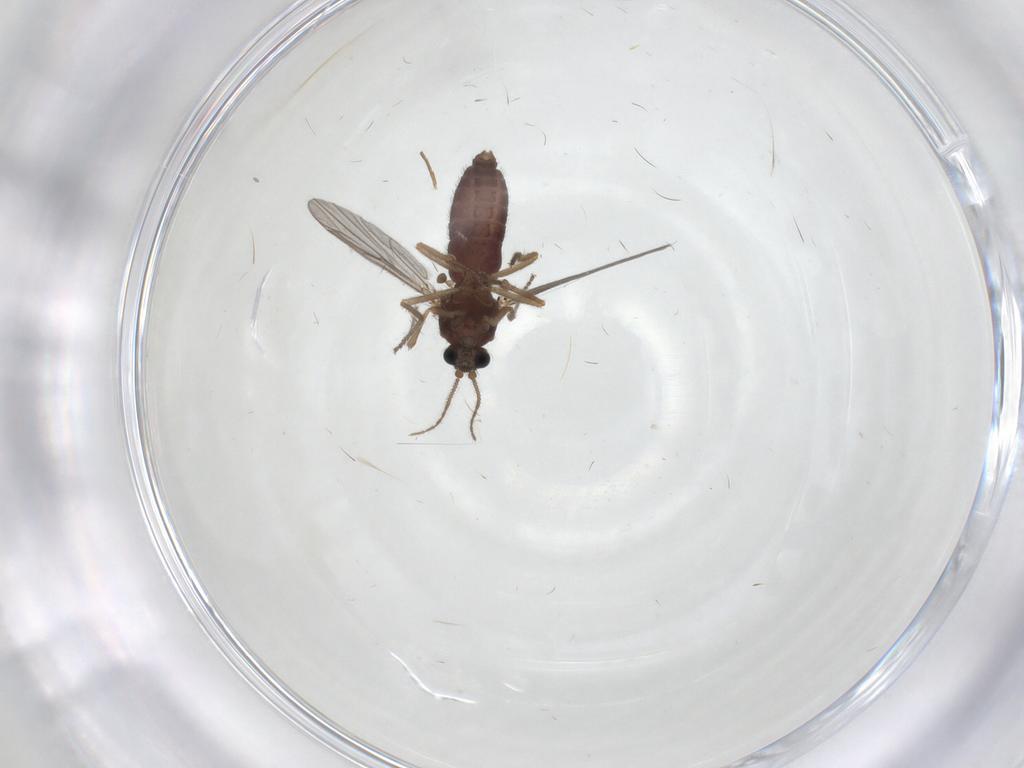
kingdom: Animalia
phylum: Arthropoda
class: Insecta
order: Diptera
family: Ceratopogonidae
